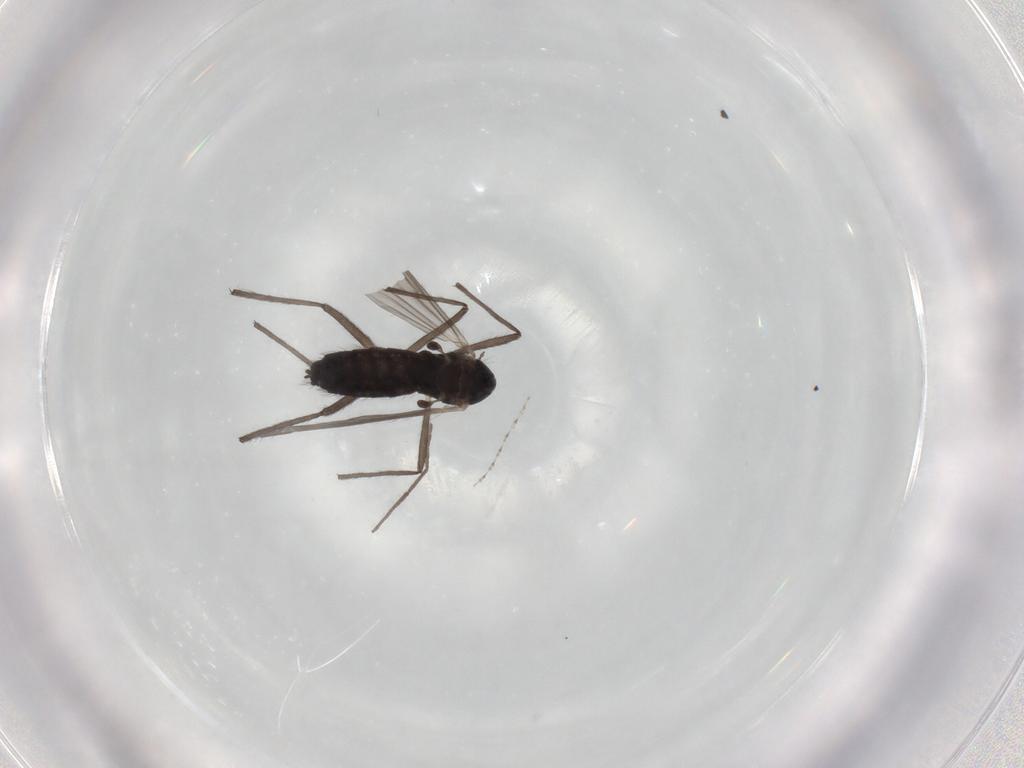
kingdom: Animalia
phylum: Arthropoda
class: Insecta
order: Diptera
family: Chironomidae
